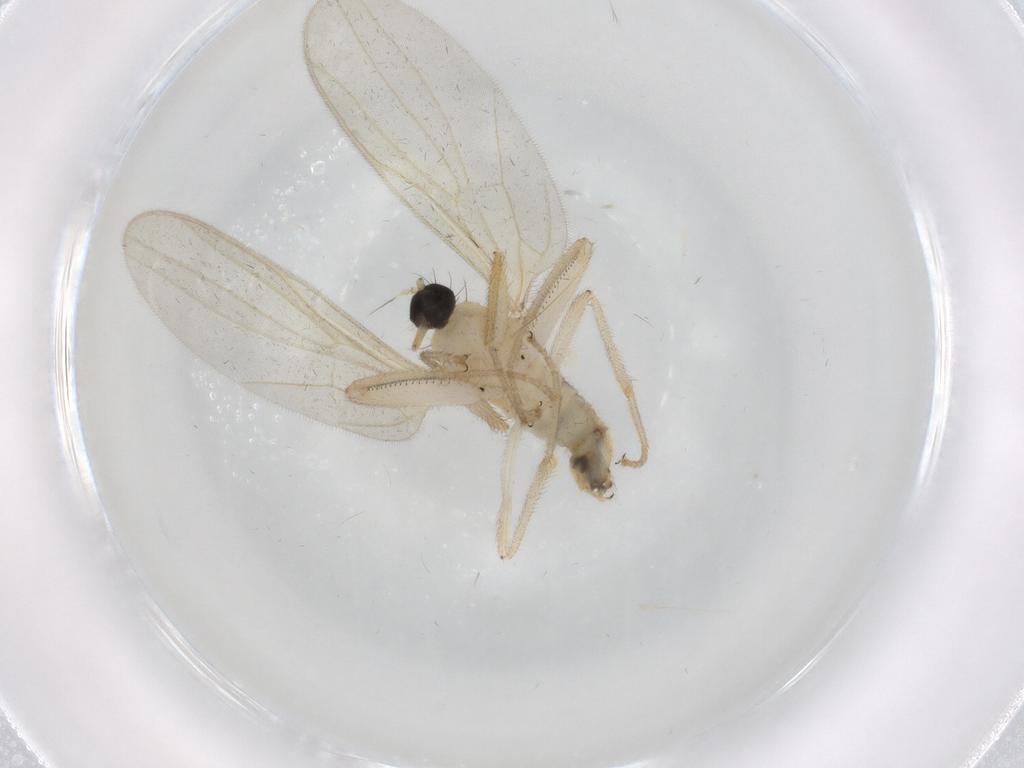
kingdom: Animalia
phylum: Arthropoda
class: Insecta
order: Diptera
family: Hybotidae
